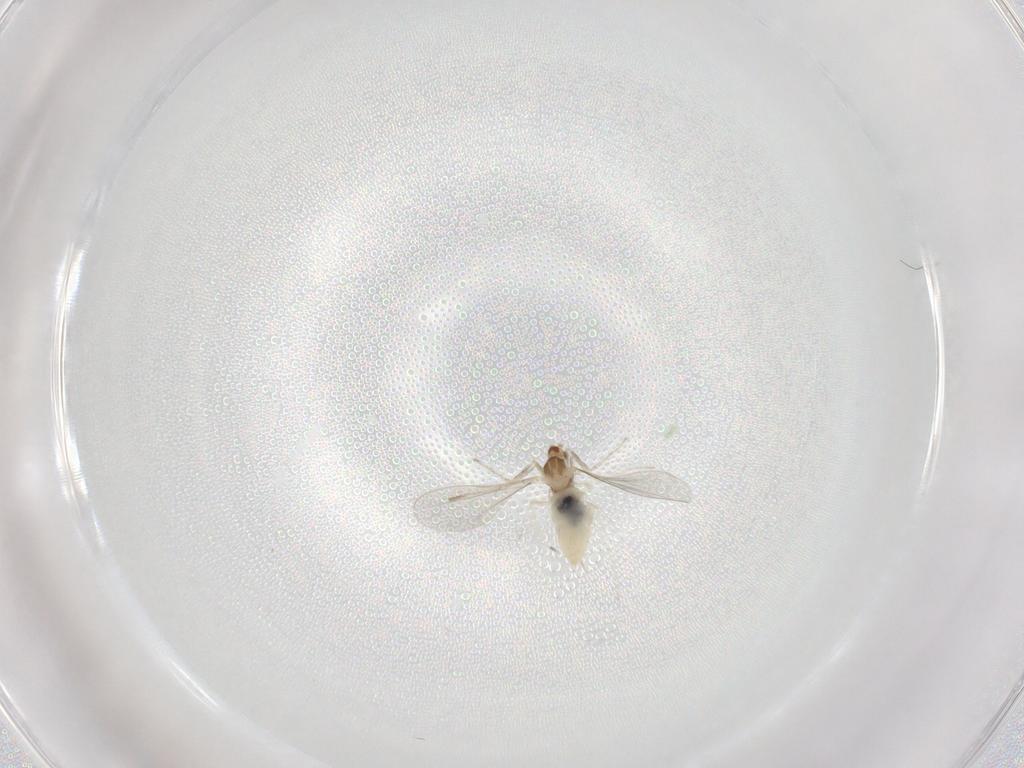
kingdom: Animalia
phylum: Arthropoda
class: Insecta
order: Diptera
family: Cecidomyiidae
